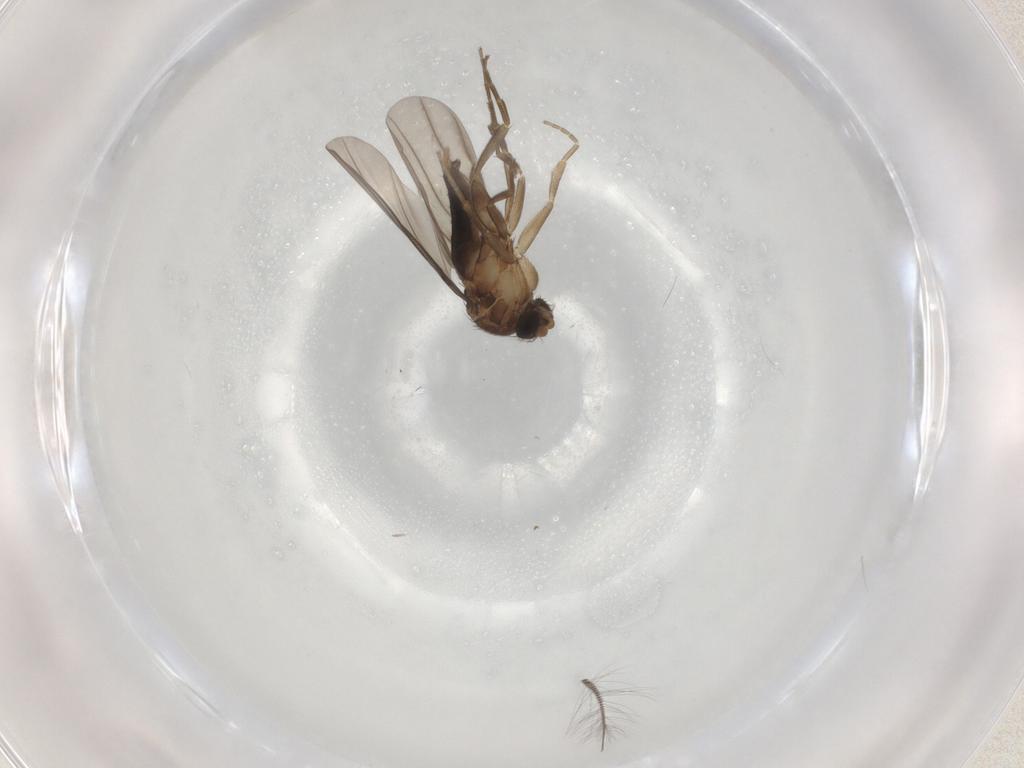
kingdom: Animalia
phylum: Arthropoda
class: Insecta
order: Diptera
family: Chironomidae
